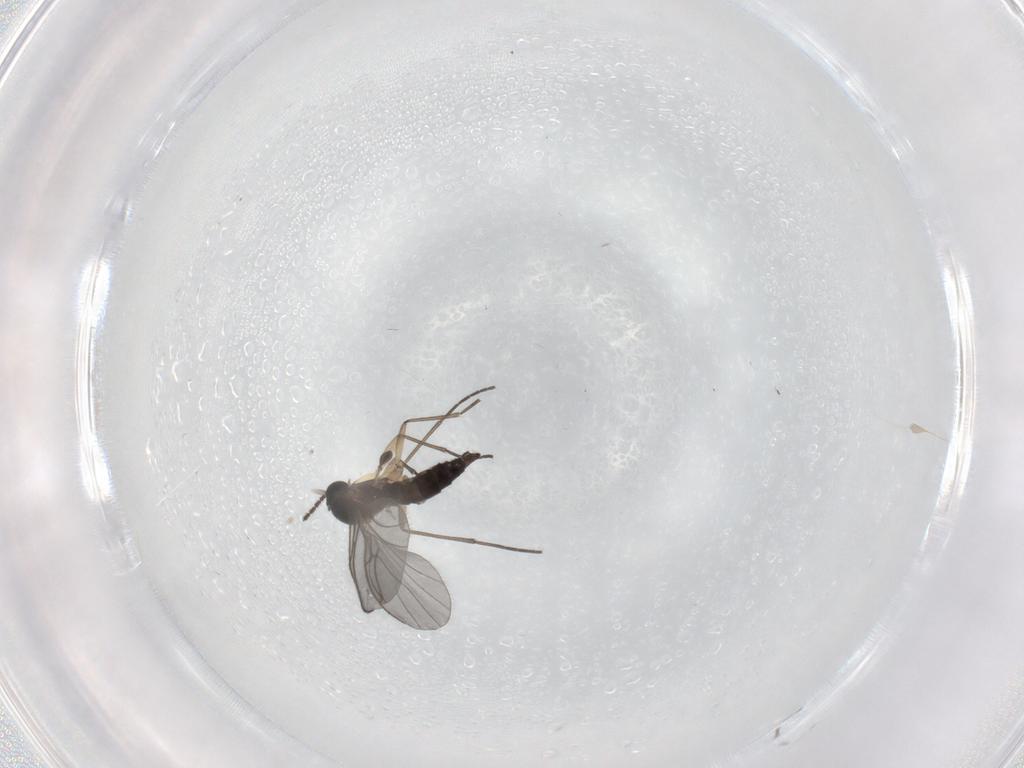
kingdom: Animalia
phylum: Arthropoda
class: Insecta
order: Diptera
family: Sciaridae
